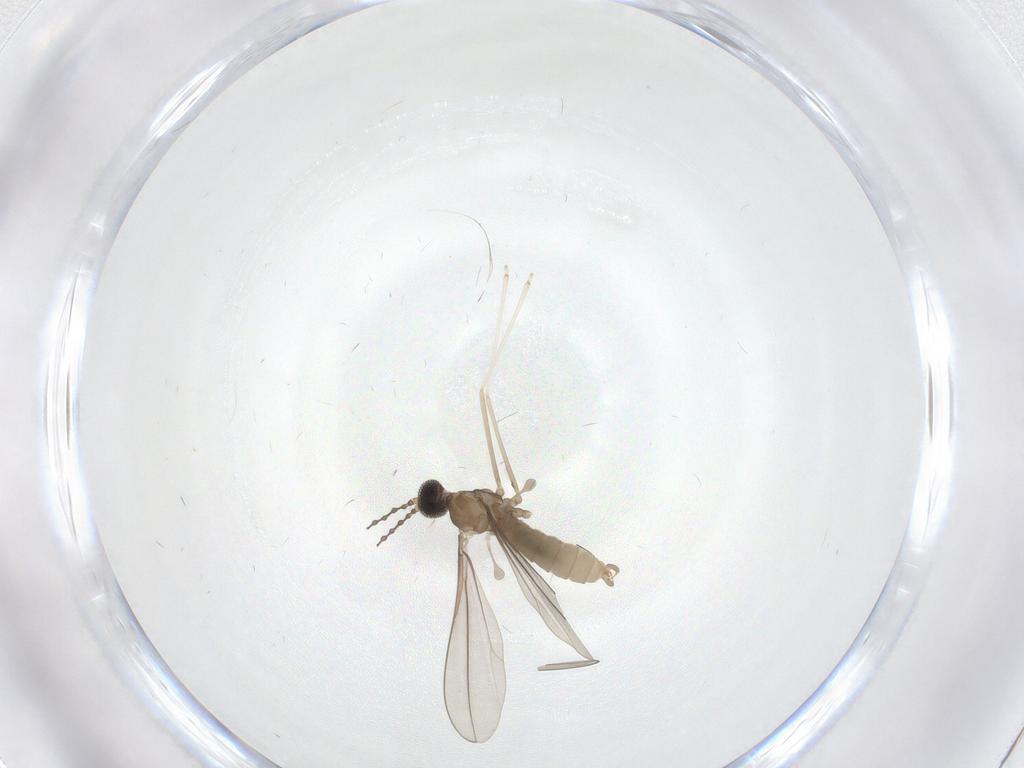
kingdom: Animalia
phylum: Arthropoda
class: Insecta
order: Diptera
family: Cecidomyiidae
